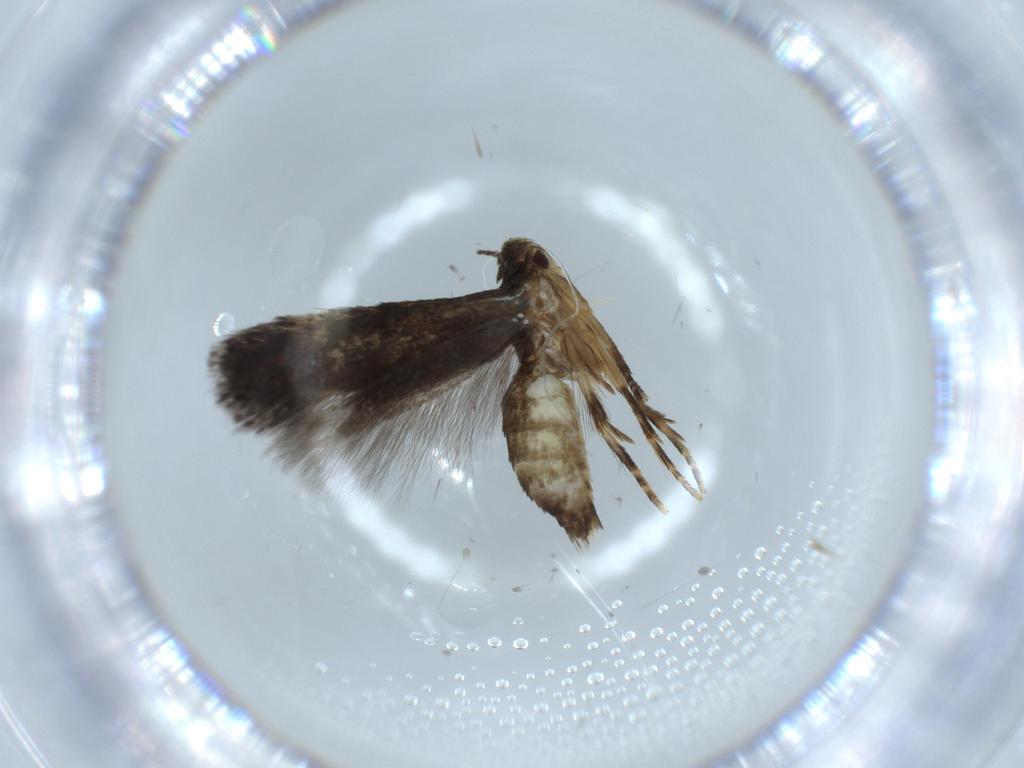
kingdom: Animalia
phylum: Arthropoda
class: Insecta
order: Lepidoptera
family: Gelechiidae
